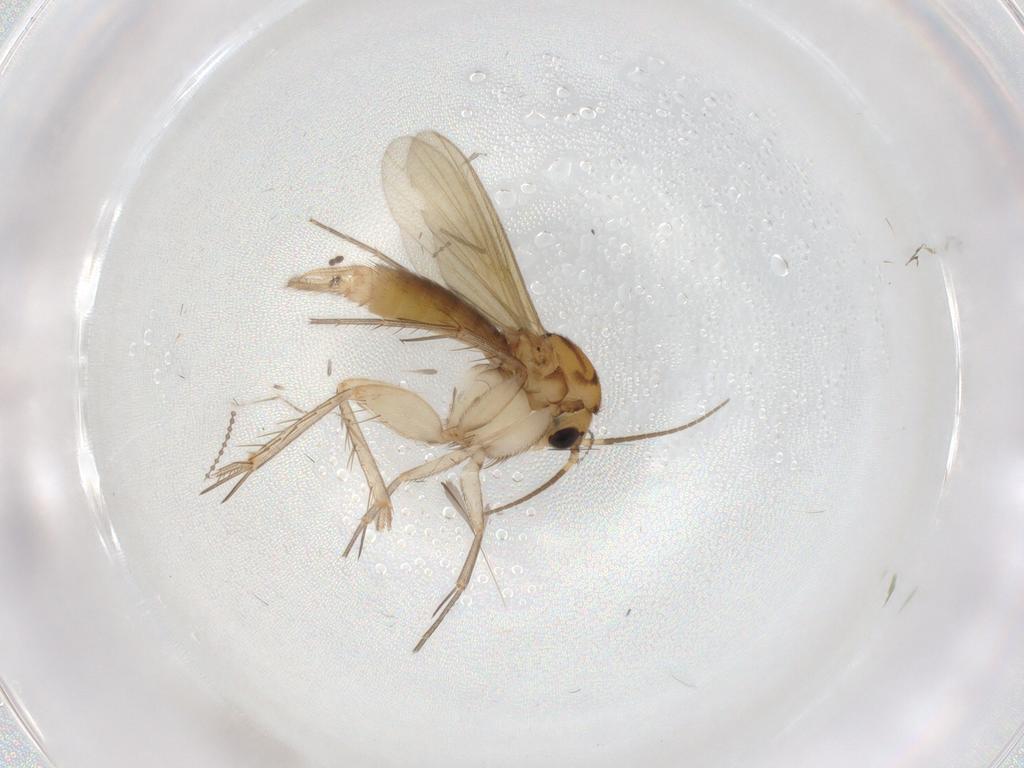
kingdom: Animalia
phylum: Arthropoda
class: Insecta
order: Diptera
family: Mycetophilidae
